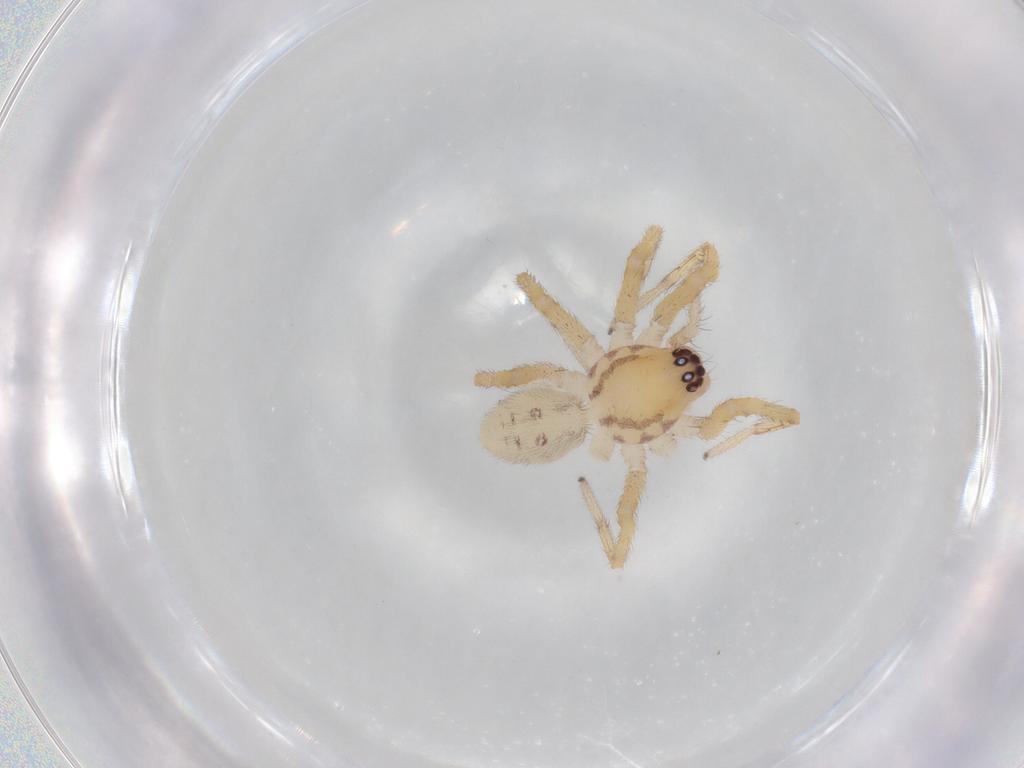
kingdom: Animalia
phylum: Arthropoda
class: Arachnida
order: Araneae
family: Corinnidae
